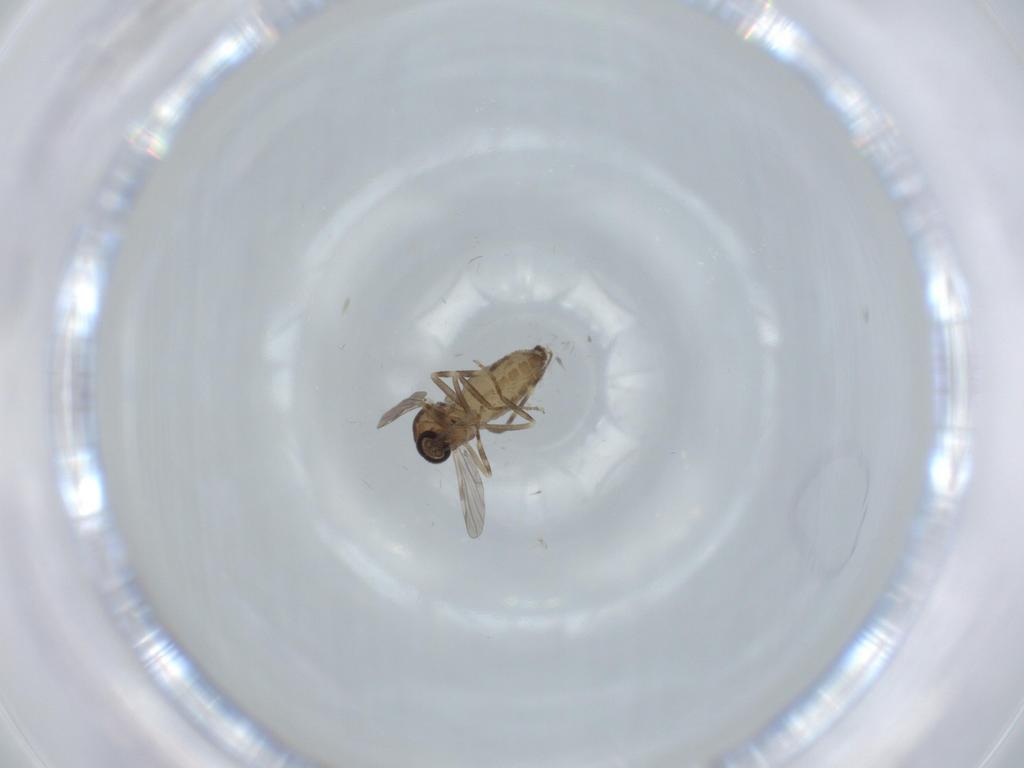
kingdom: Animalia
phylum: Arthropoda
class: Insecta
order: Diptera
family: Ceratopogonidae
